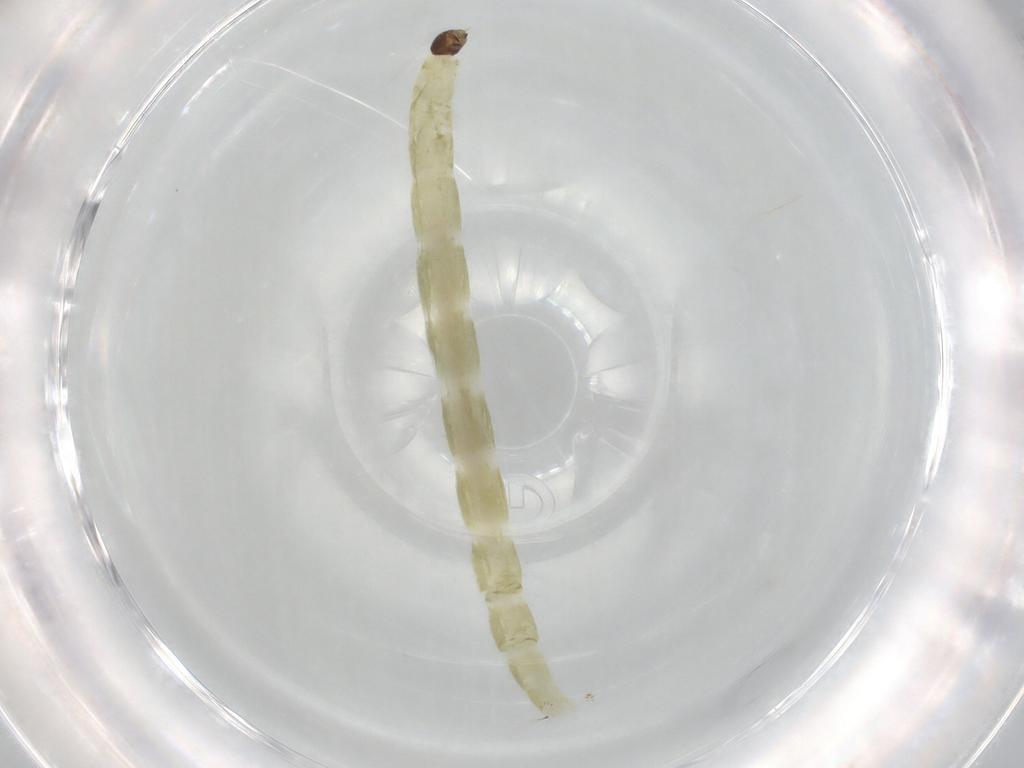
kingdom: Animalia
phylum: Arthropoda
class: Insecta
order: Diptera
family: Chironomidae
